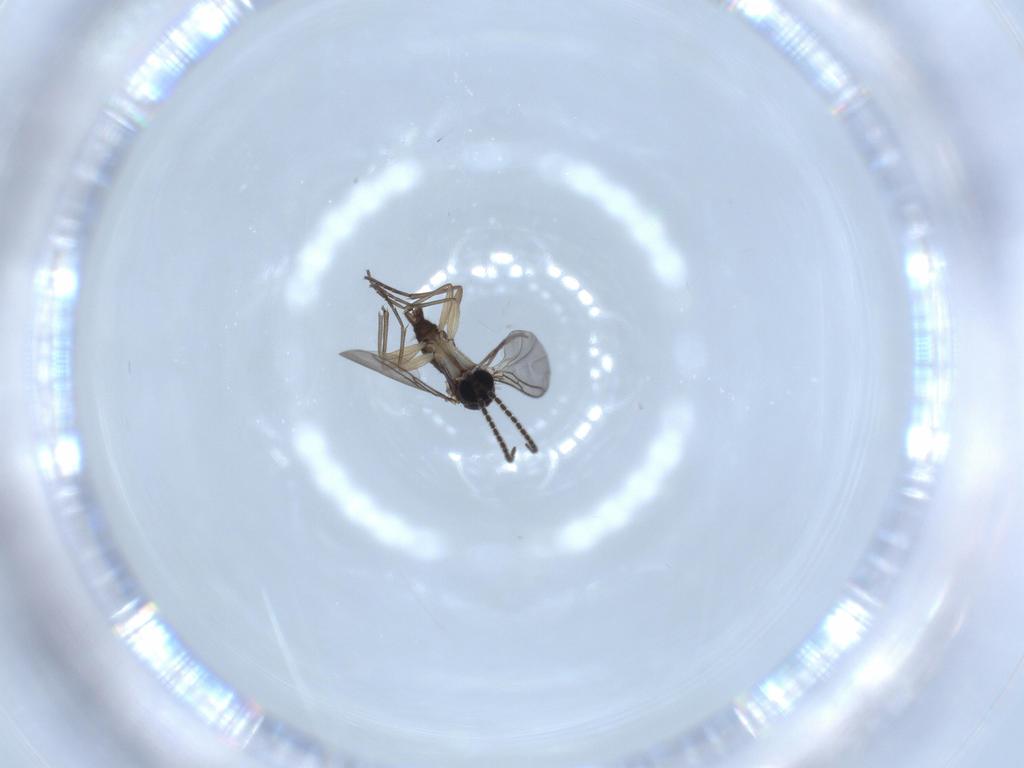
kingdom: Animalia
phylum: Arthropoda
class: Insecta
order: Diptera
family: Sciaridae
